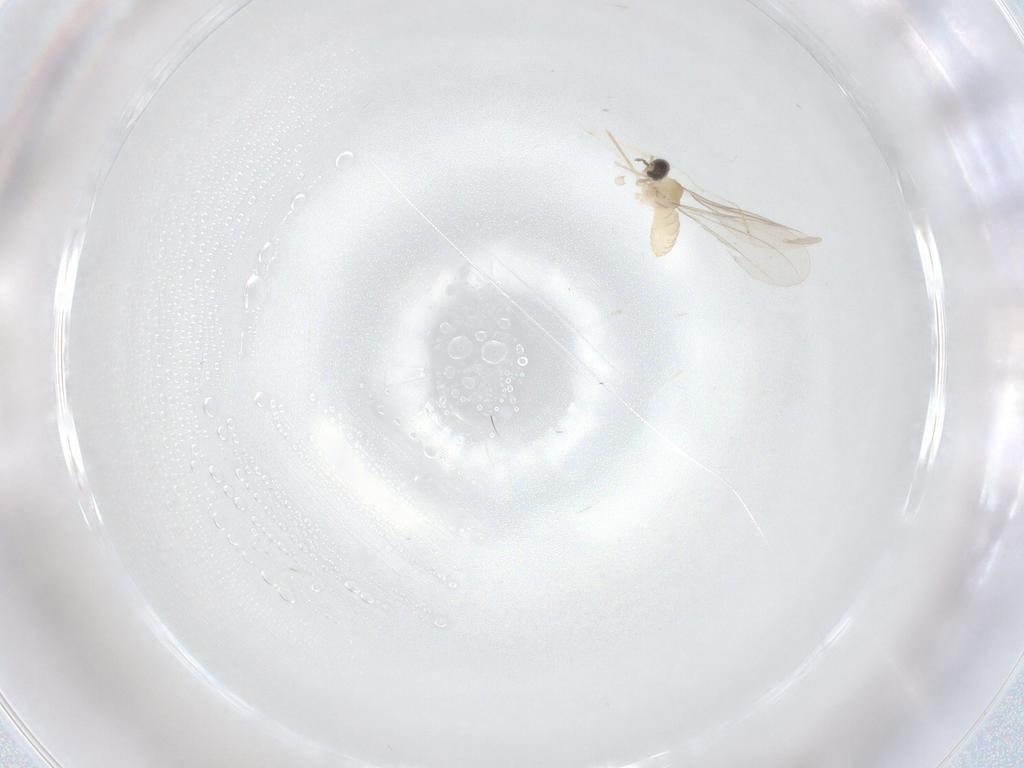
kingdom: Animalia
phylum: Arthropoda
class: Insecta
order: Diptera
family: Cecidomyiidae
